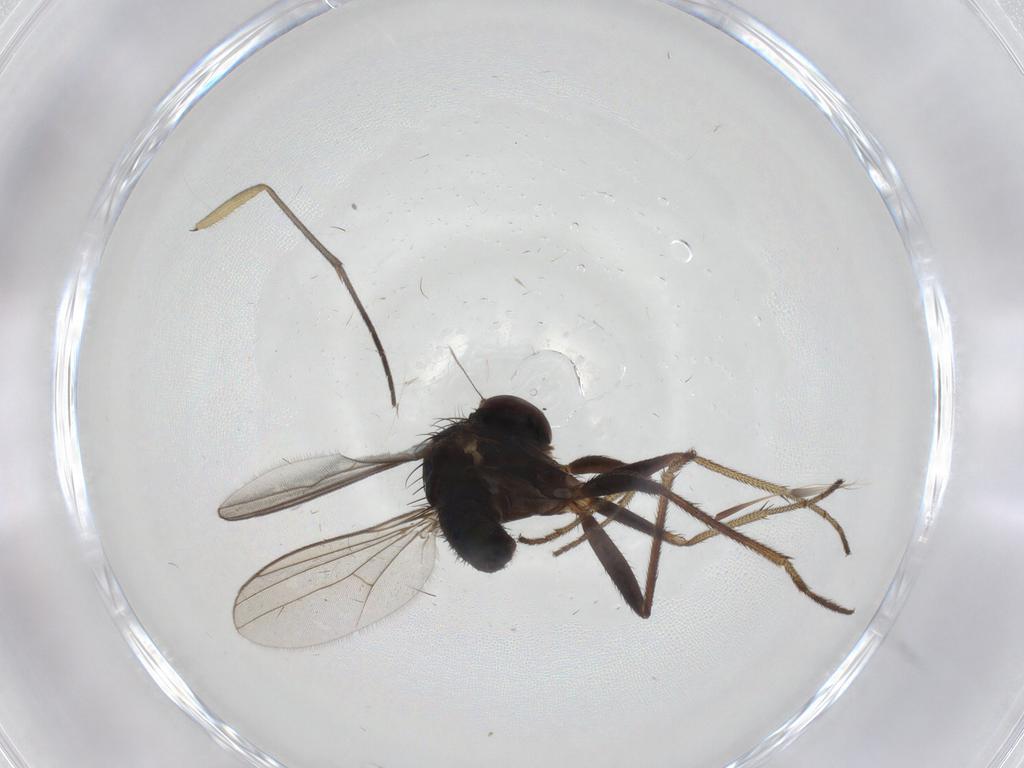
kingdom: Animalia
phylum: Arthropoda
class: Insecta
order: Diptera
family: Sciaridae
